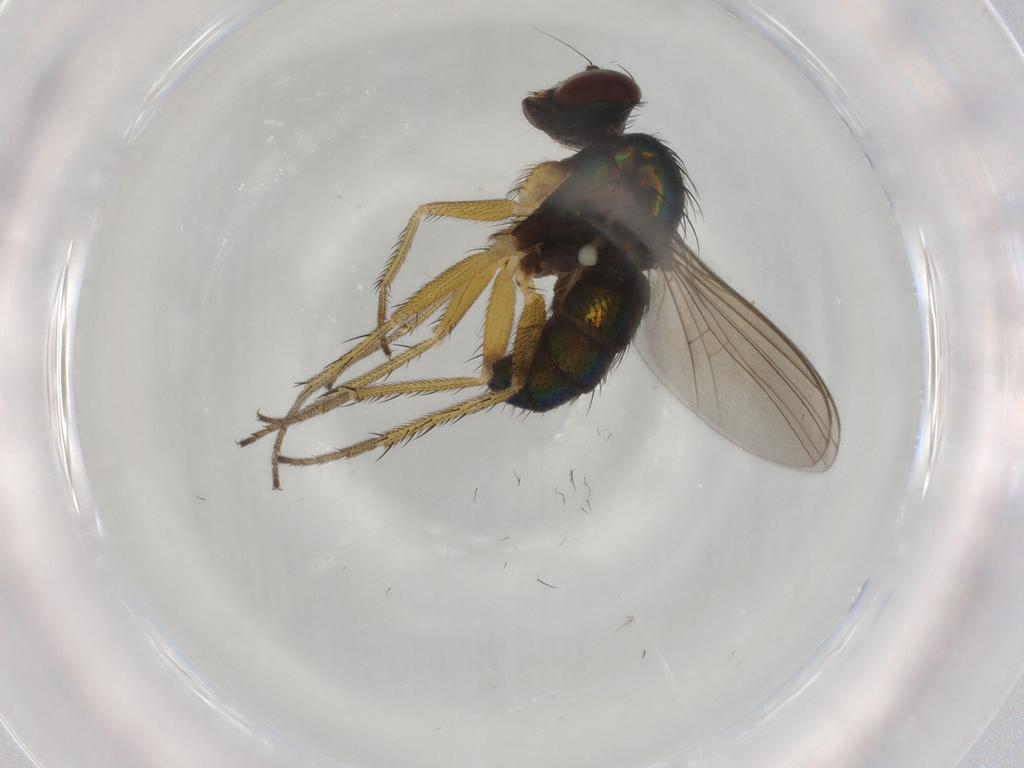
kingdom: Animalia
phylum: Arthropoda
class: Insecta
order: Diptera
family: Dolichopodidae
